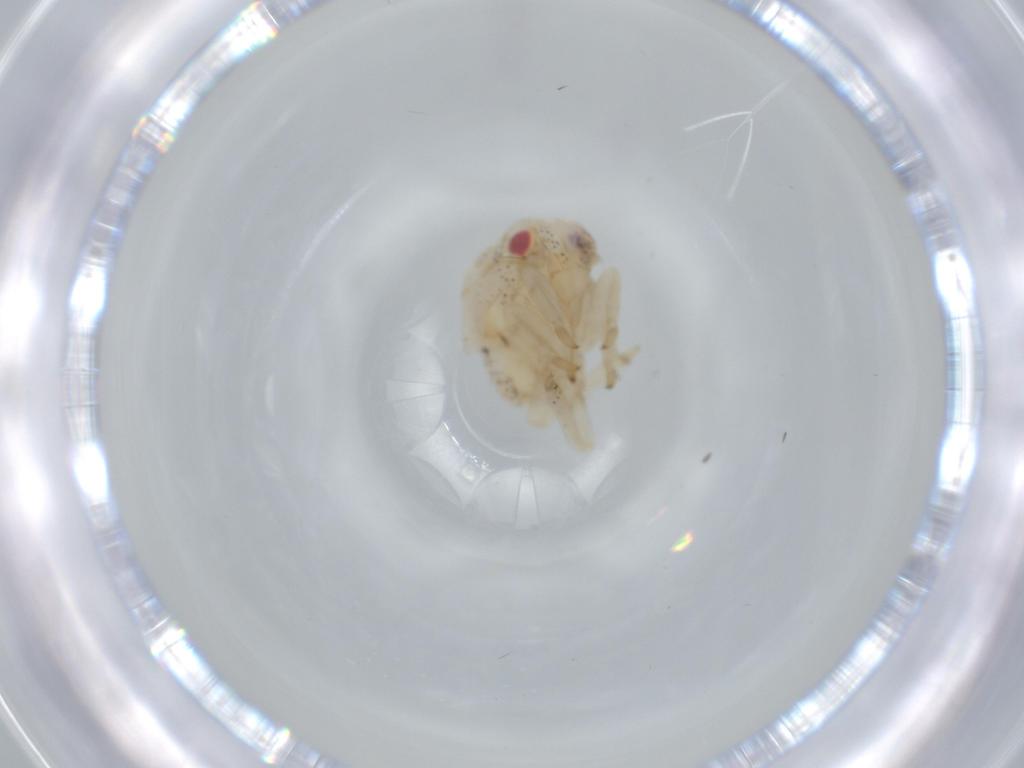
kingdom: Animalia
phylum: Arthropoda
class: Insecta
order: Hemiptera
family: Acanaloniidae
